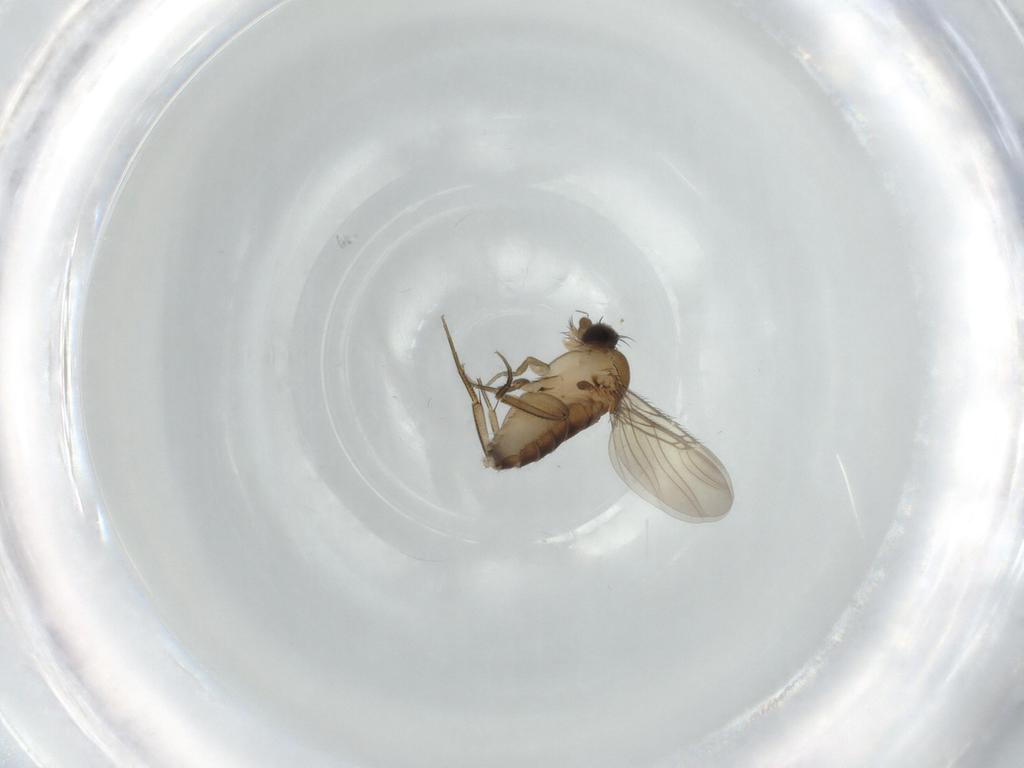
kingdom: Animalia
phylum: Arthropoda
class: Insecta
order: Diptera
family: Phoridae
